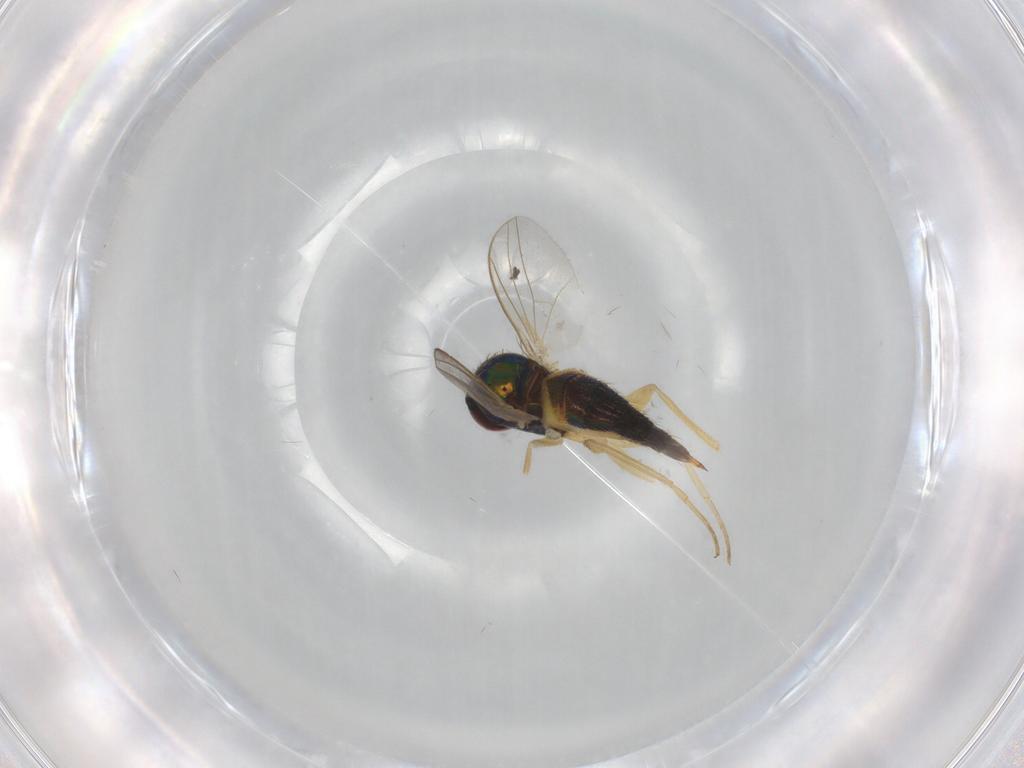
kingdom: Animalia
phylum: Arthropoda
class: Insecta
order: Diptera
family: Dolichopodidae
